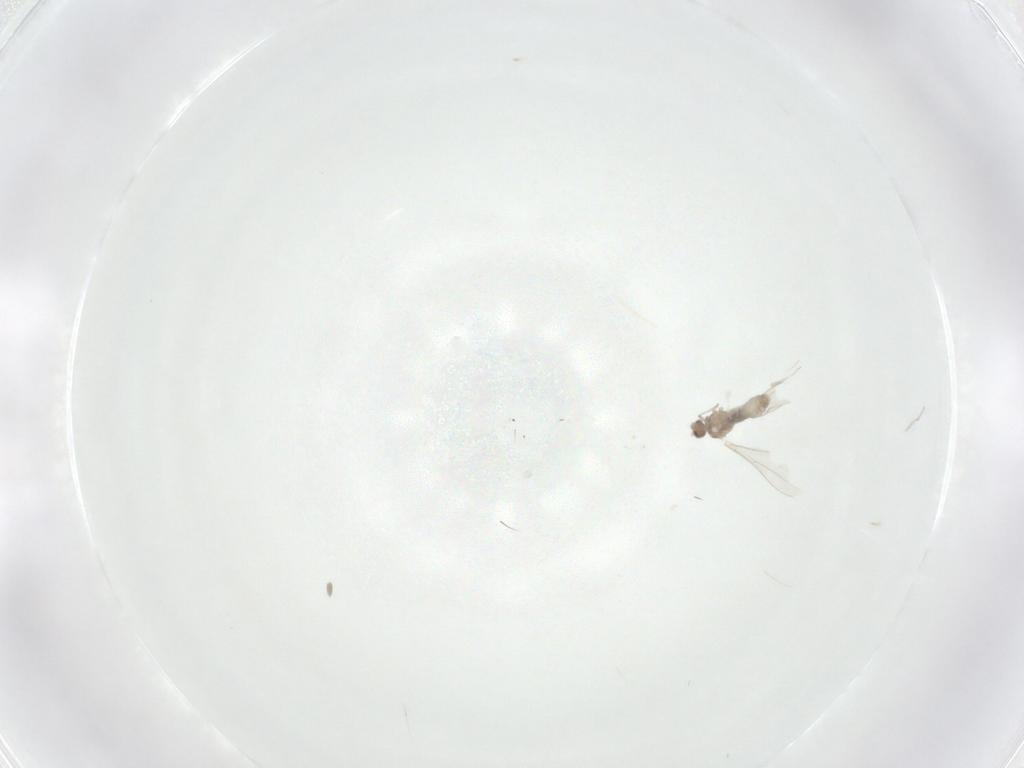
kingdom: Animalia
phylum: Arthropoda
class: Insecta
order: Diptera
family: Cecidomyiidae
